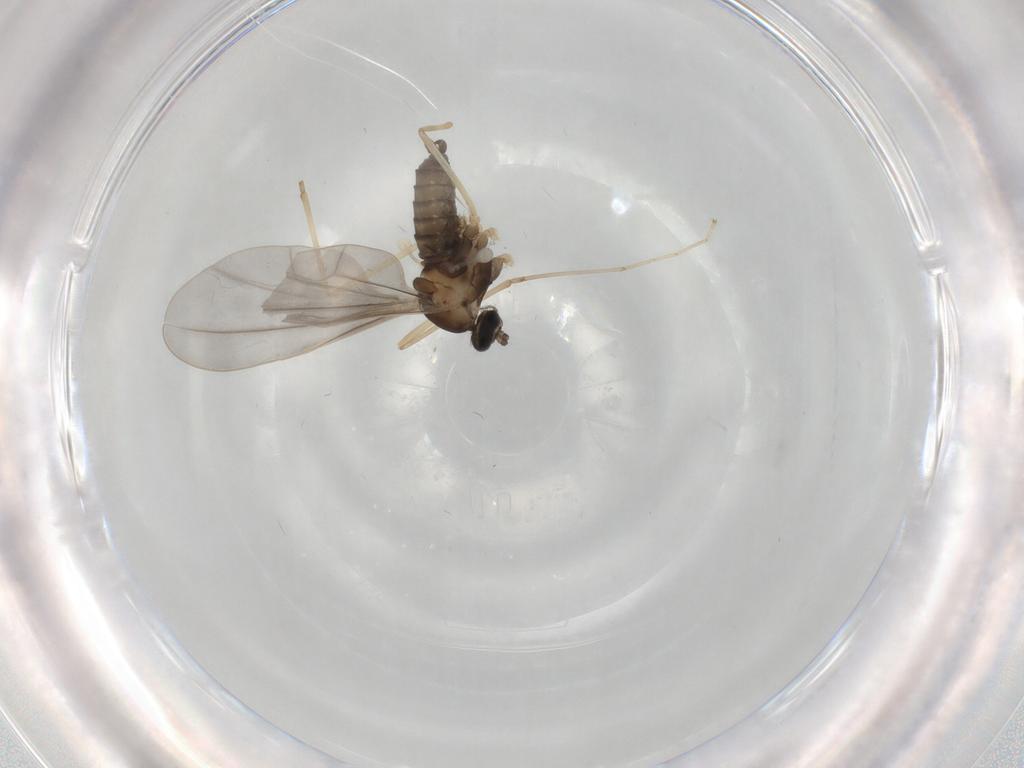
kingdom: Animalia
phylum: Arthropoda
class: Insecta
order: Diptera
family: Cecidomyiidae
